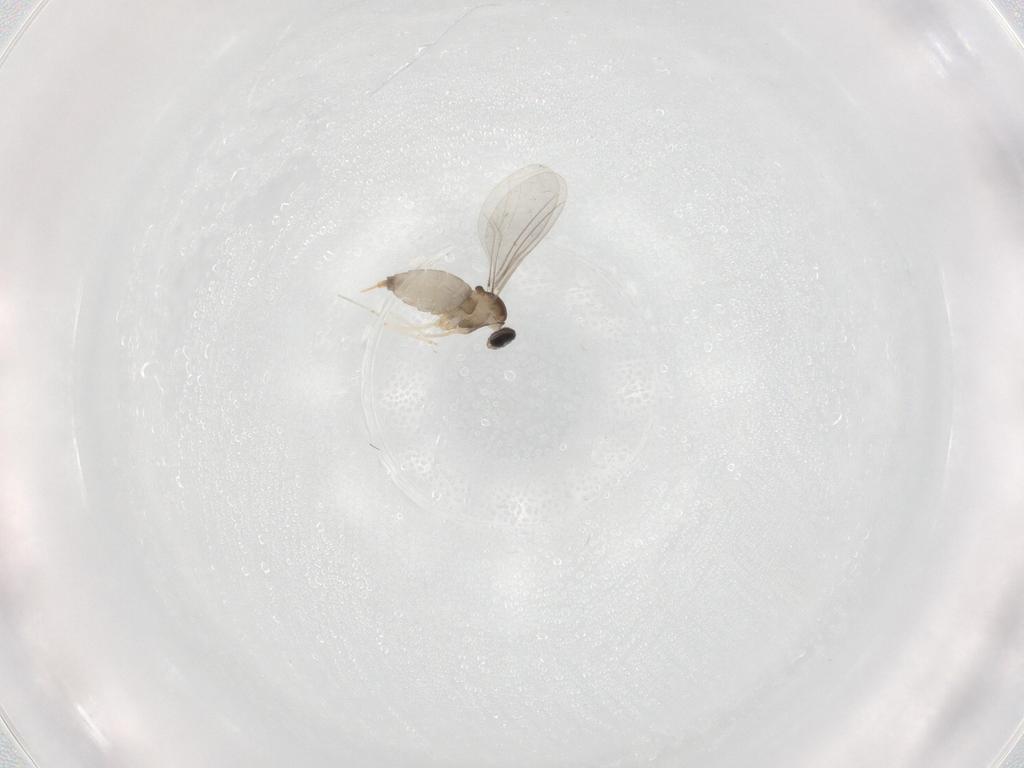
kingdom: Animalia
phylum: Arthropoda
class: Insecta
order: Diptera
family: Cecidomyiidae
